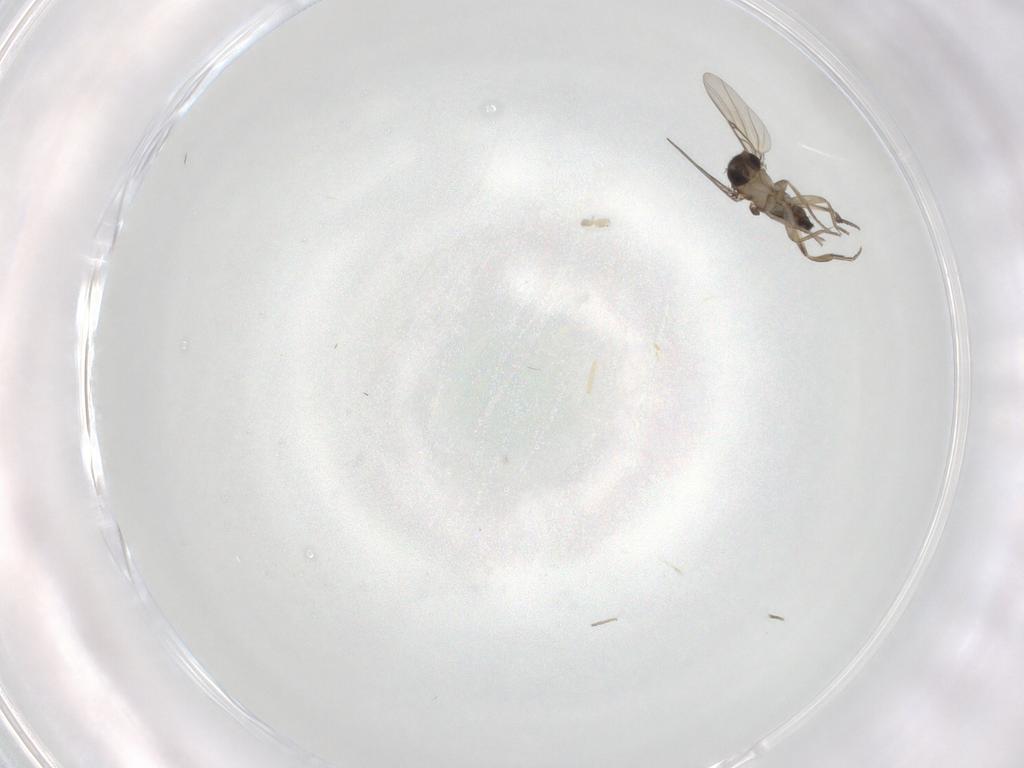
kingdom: Animalia
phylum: Arthropoda
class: Insecta
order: Diptera
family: Phoridae
